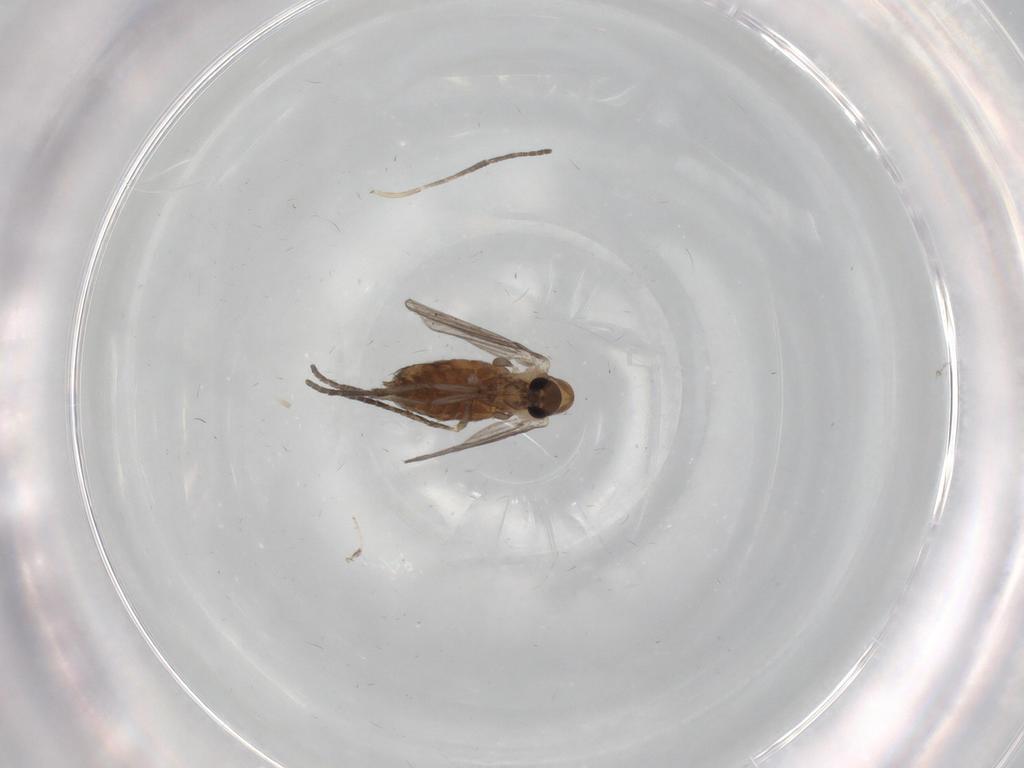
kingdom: Animalia
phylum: Arthropoda
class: Insecta
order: Diptera
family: Psychodidae
